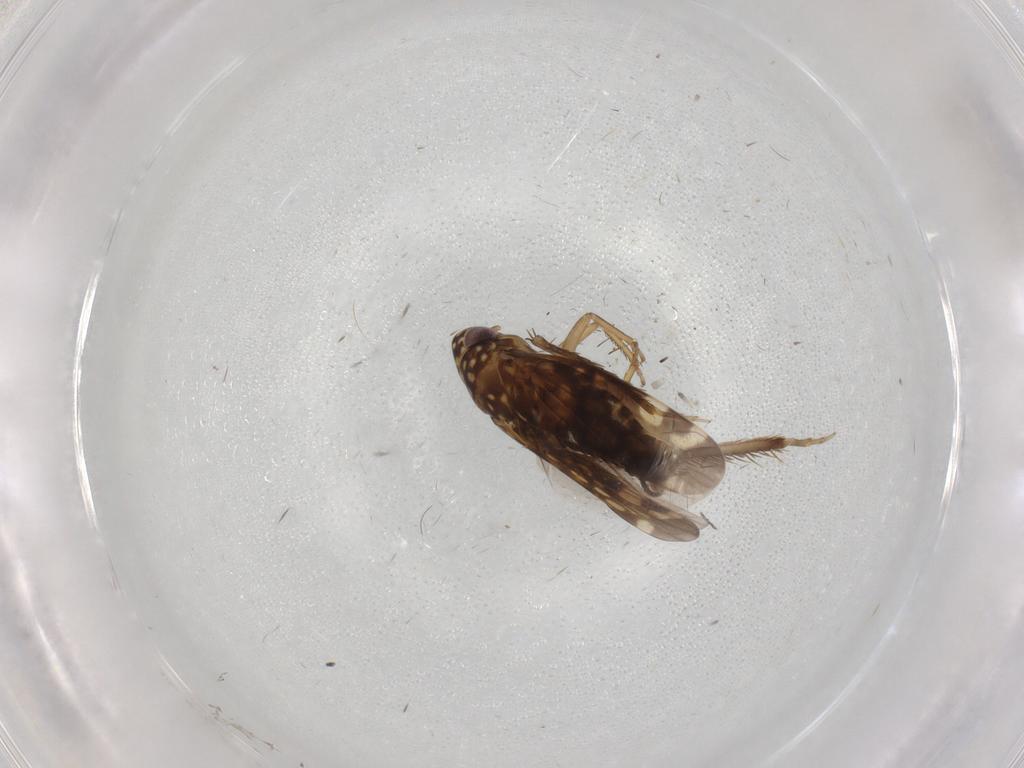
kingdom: Animalia
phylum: Arthropoda
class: Insecta
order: Hemiptera
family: Cicadellidae
